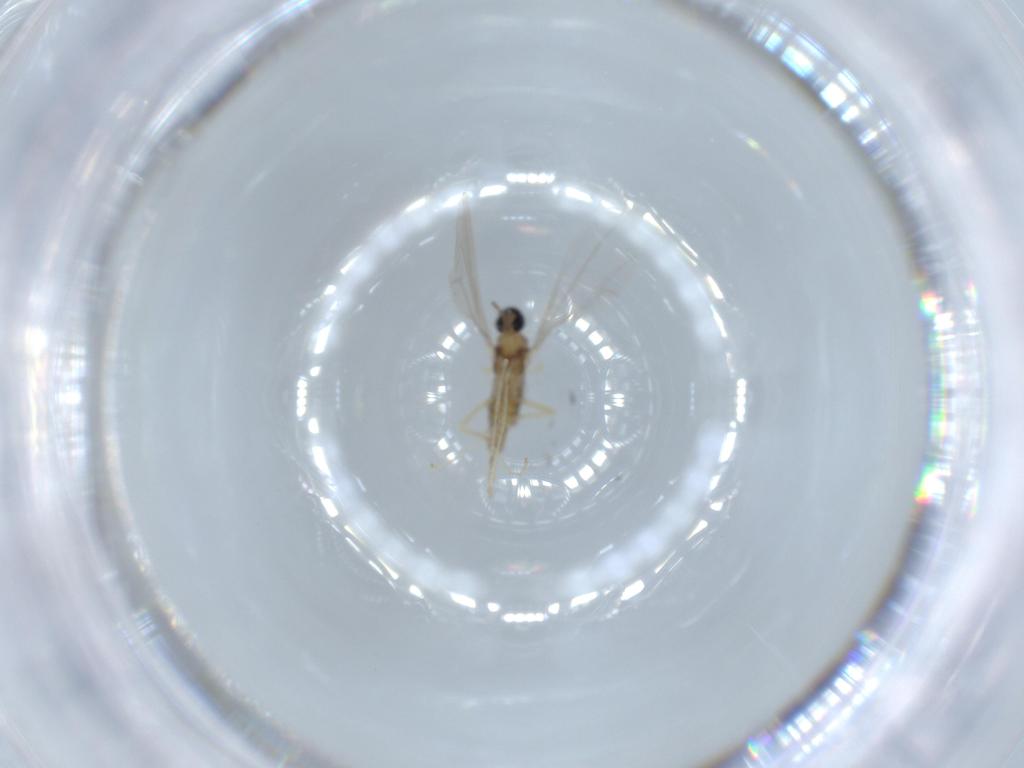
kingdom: Animalia
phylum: Arthropoda
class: Insecta
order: Diptera
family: Cecidomyiidae
